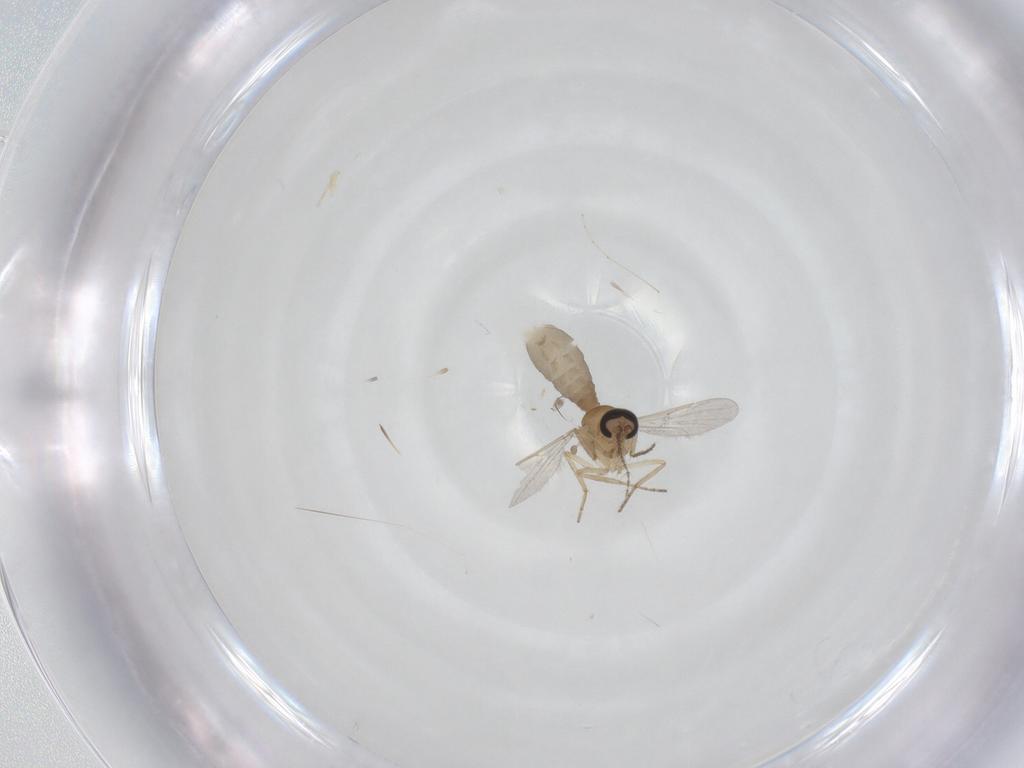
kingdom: Animalia
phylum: Arthropoda
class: Insecta
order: Diptera
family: Ceratopogonidae
